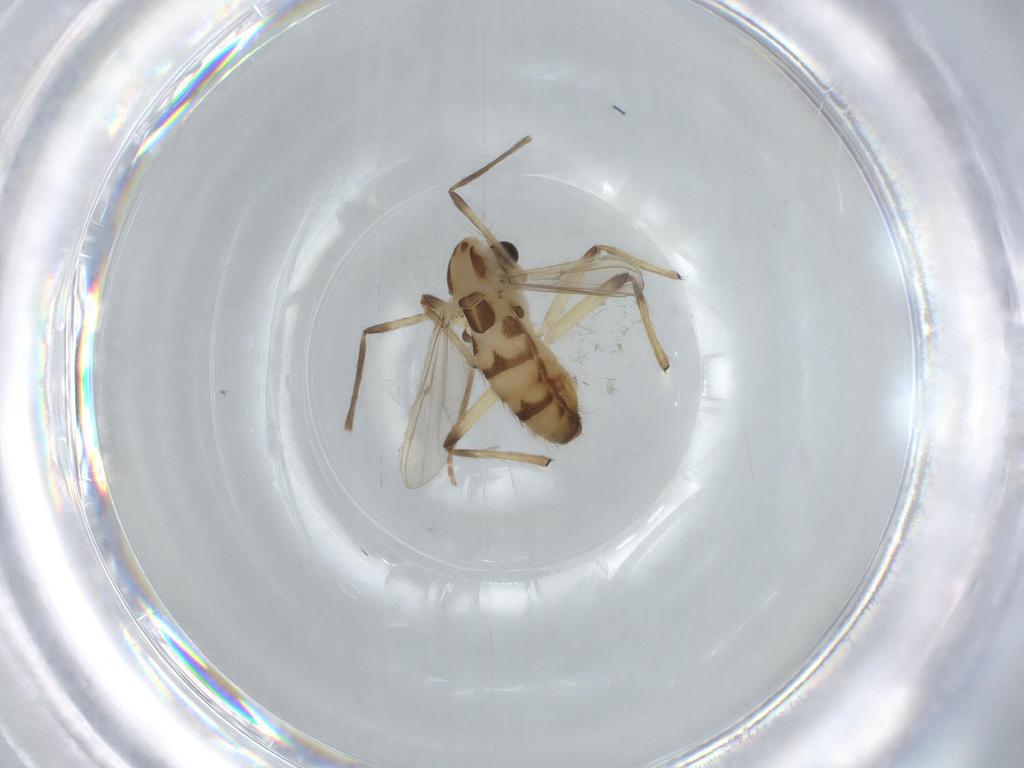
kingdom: Animalia
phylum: Arthropoda
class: Insecta
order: Diptera
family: Chironomidae
